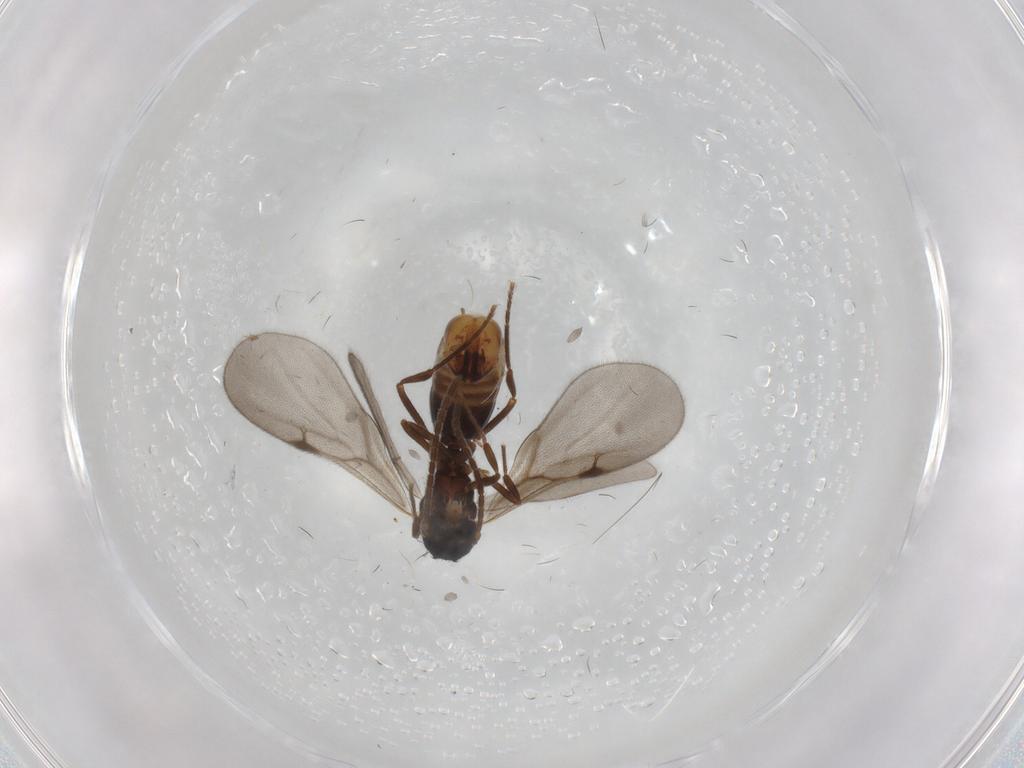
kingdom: Animalia
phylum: Arthropoda
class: Insecta
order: Hymenoptera
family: Formicidae
